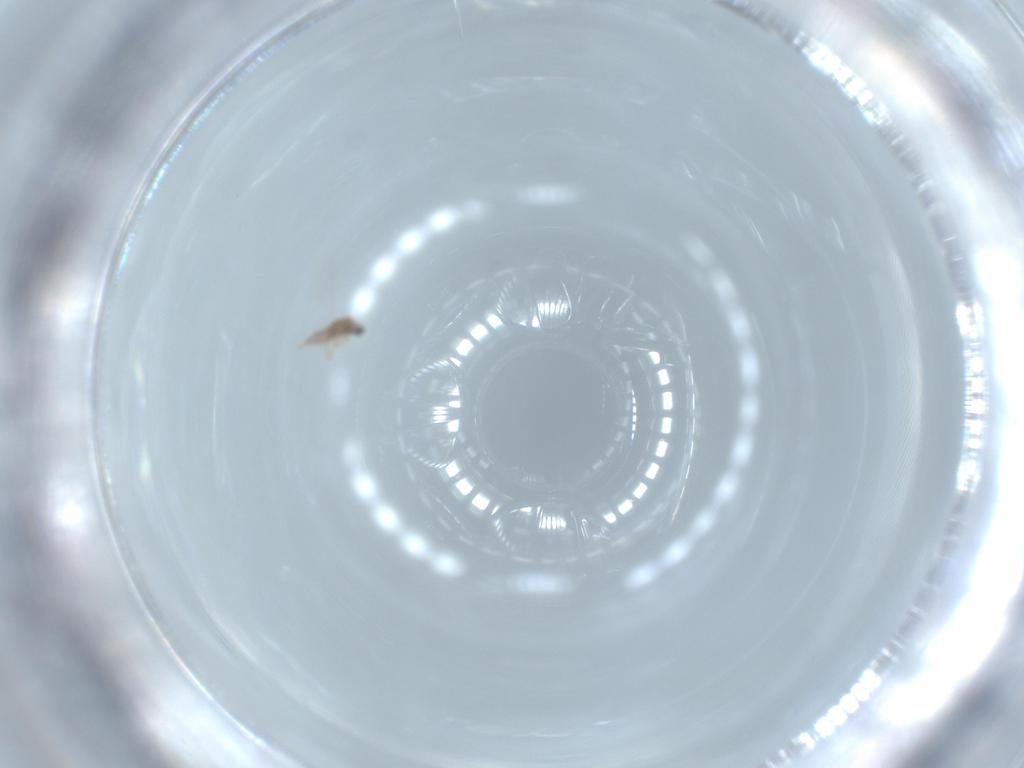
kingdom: Animalia
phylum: Arthropoda
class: Insecta
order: Hemiptera
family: Diaspididae
